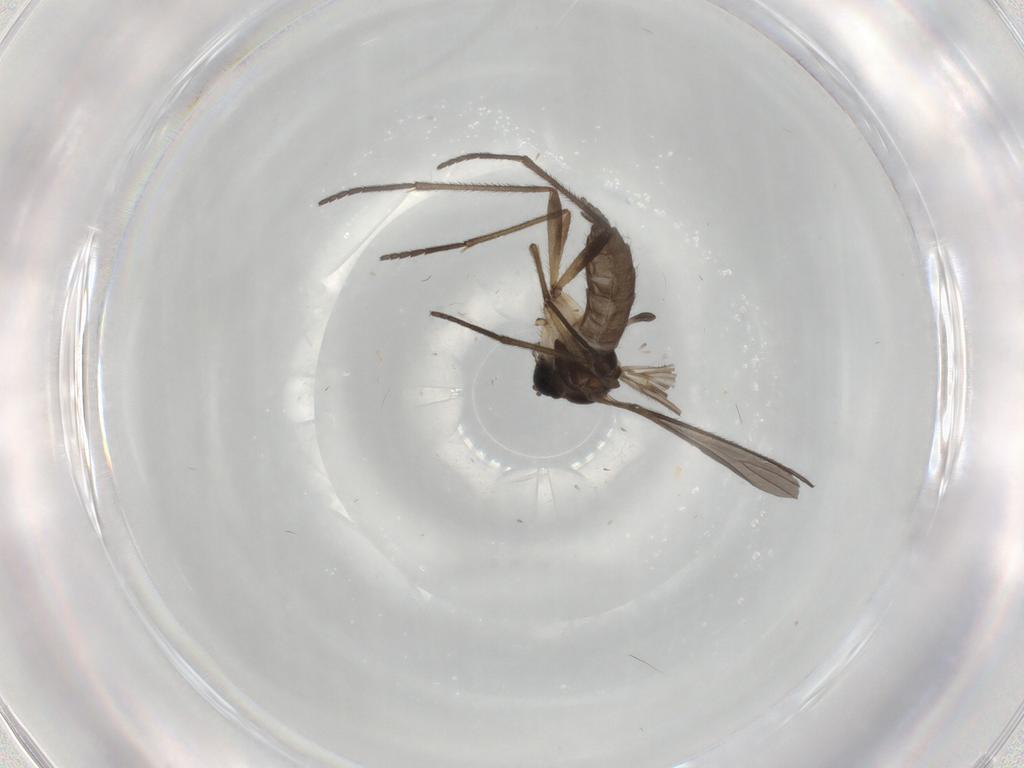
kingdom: Animalia
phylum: Arthropoda
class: Insecta
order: Diptera
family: Sciaridae
